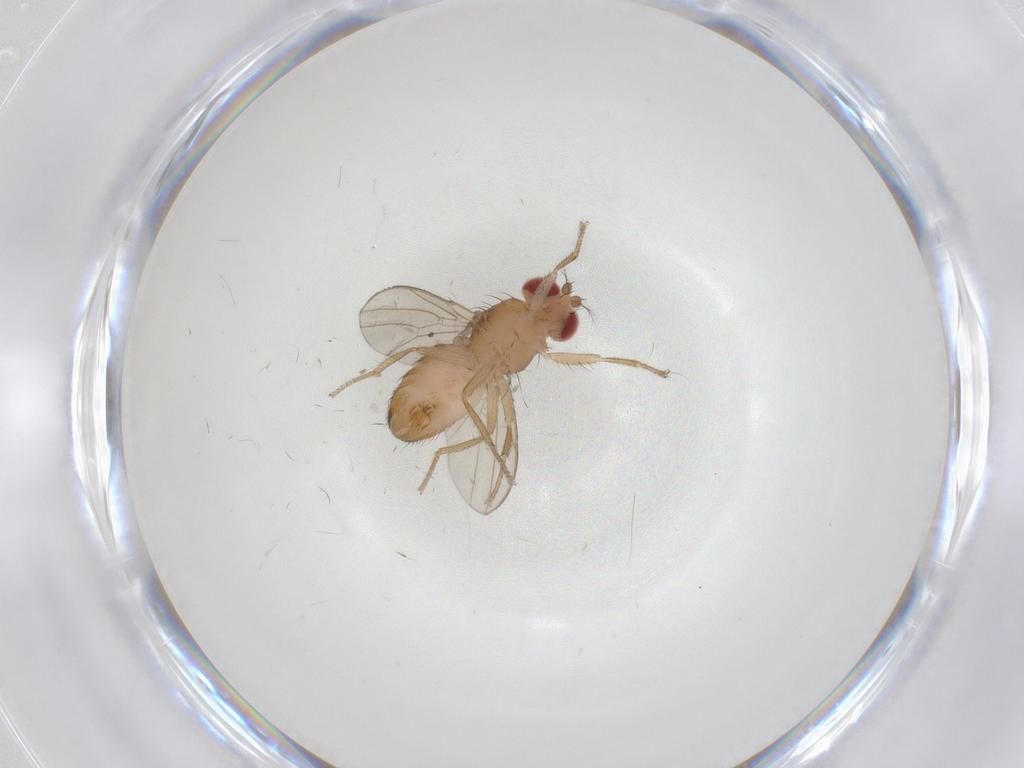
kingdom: Animalia
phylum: Arthropoda
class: Insecta
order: Diptera
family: Drosophilidae
